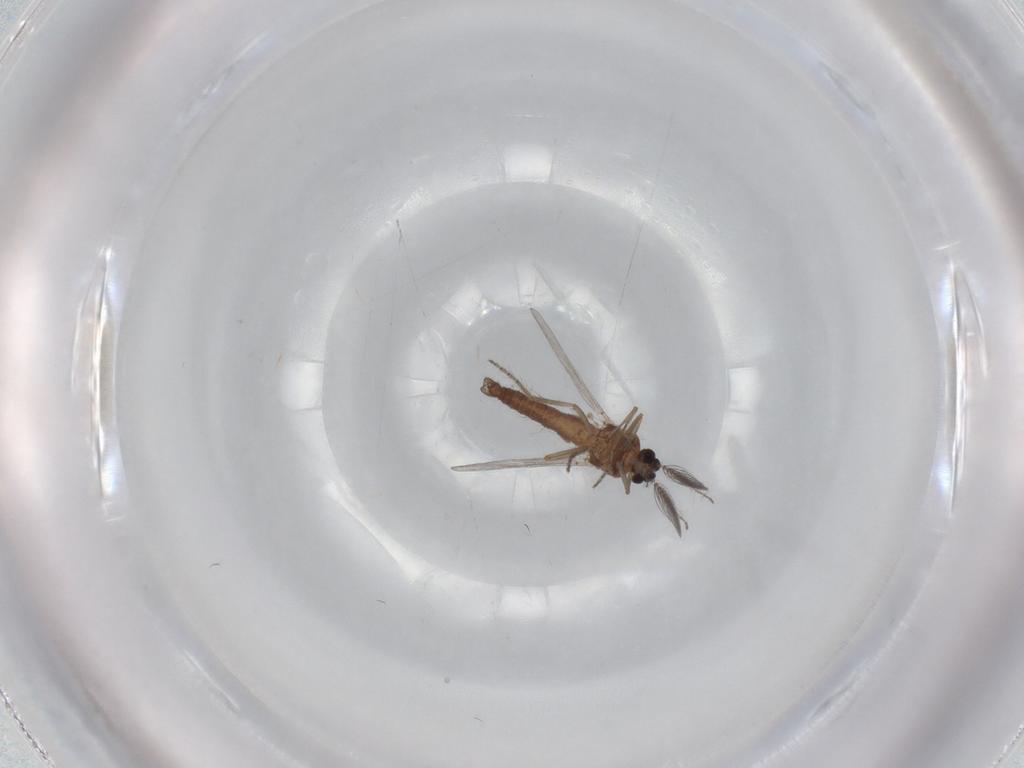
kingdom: Animalia
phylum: Arthropoda
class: Insecta
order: Diptera
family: Ceratopogonidae
